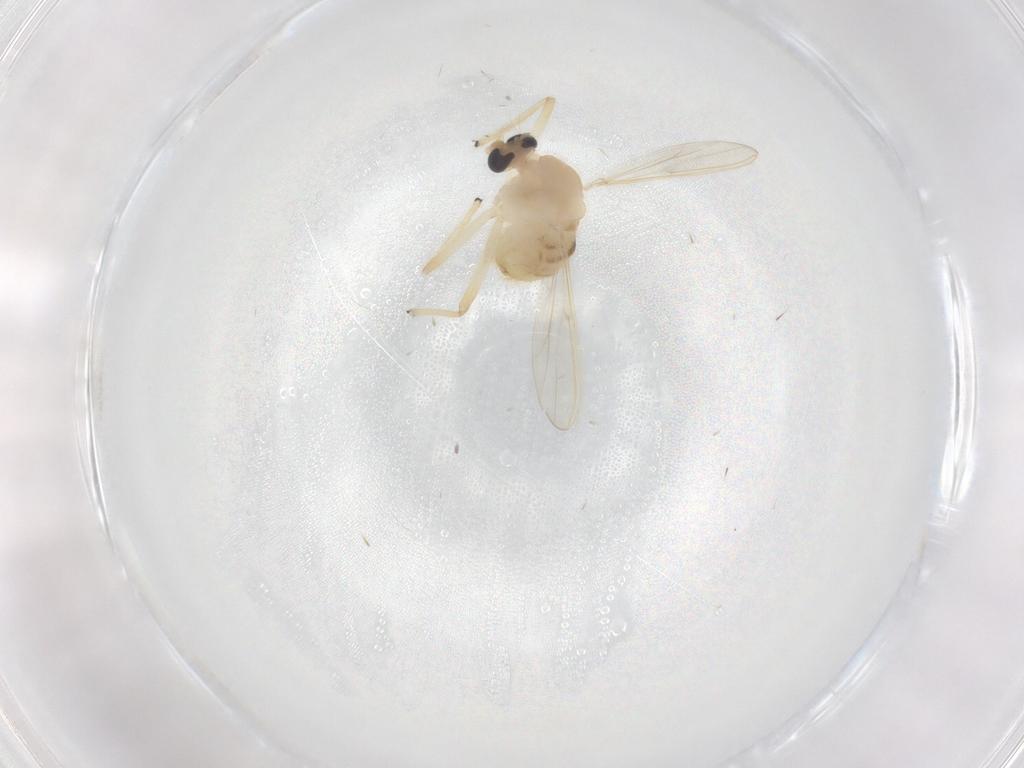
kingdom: Animalia
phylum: Arthropoda
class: Insecta
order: Diptera
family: Chironomidae
